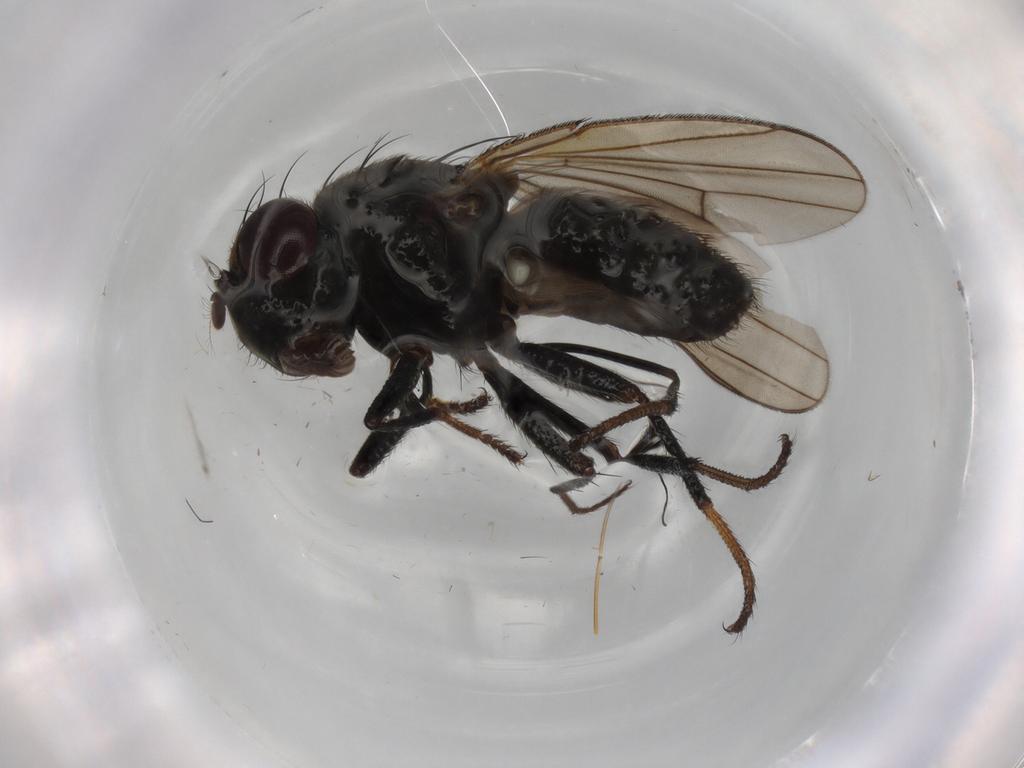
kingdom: Animalia
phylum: Arthropoda
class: Insecta
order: Diptera
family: Ephydridae
